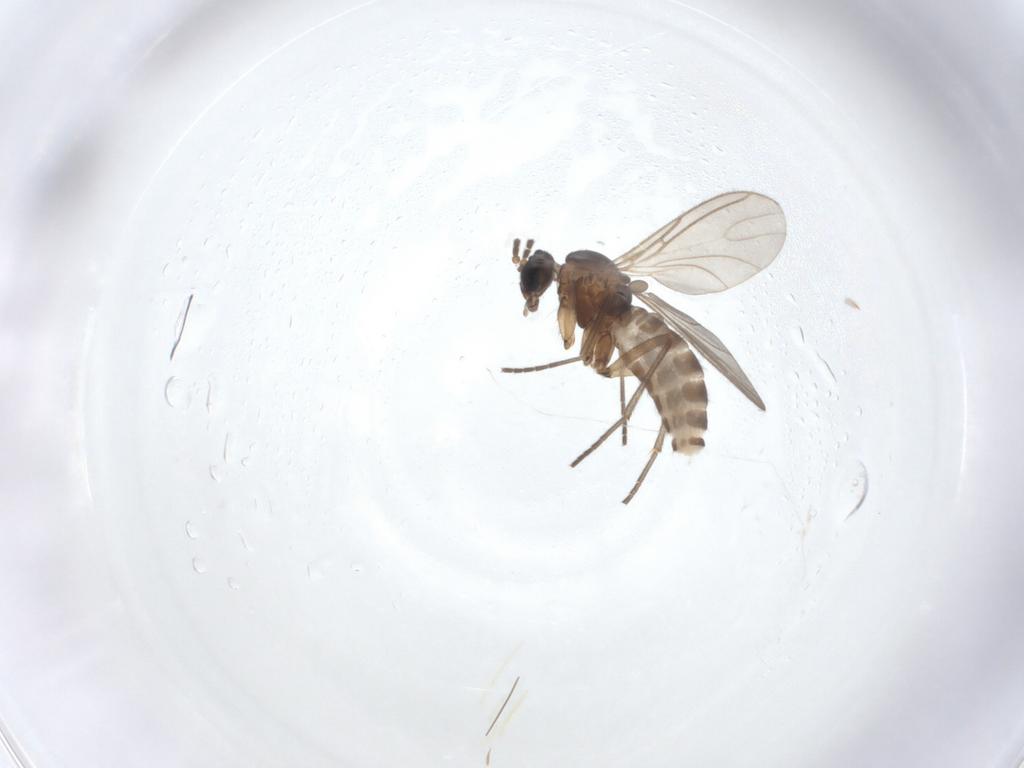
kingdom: Animalia
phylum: Arthropoda
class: Insecta
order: Diptera
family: Sciaridae
